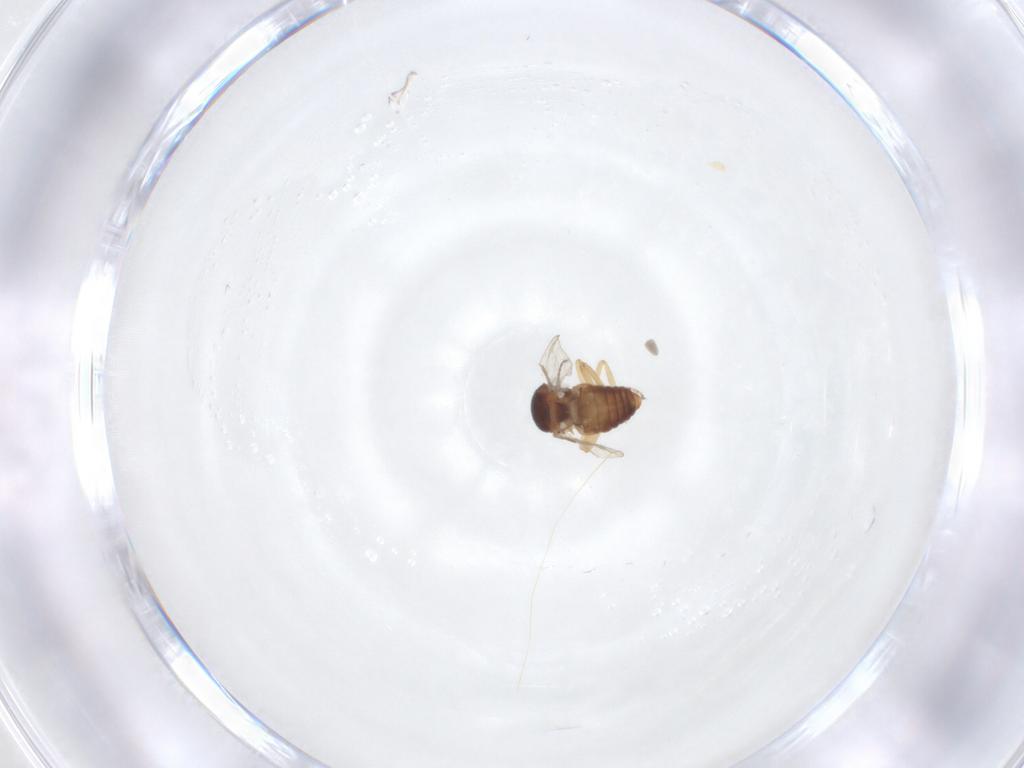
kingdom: Animalia
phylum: Arthropoda
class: Insecta
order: Diptera
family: Ceratopogonidae
